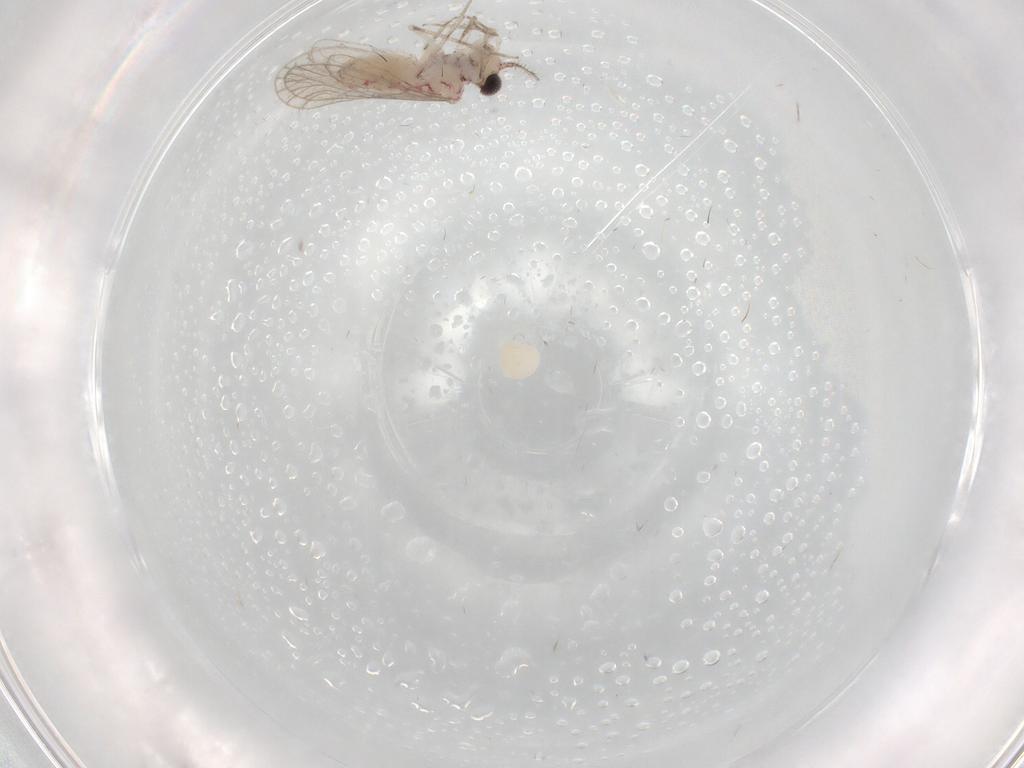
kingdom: Animalia
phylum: Arthropoda
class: Insecta
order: Psocodea
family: Caeciliusidae
